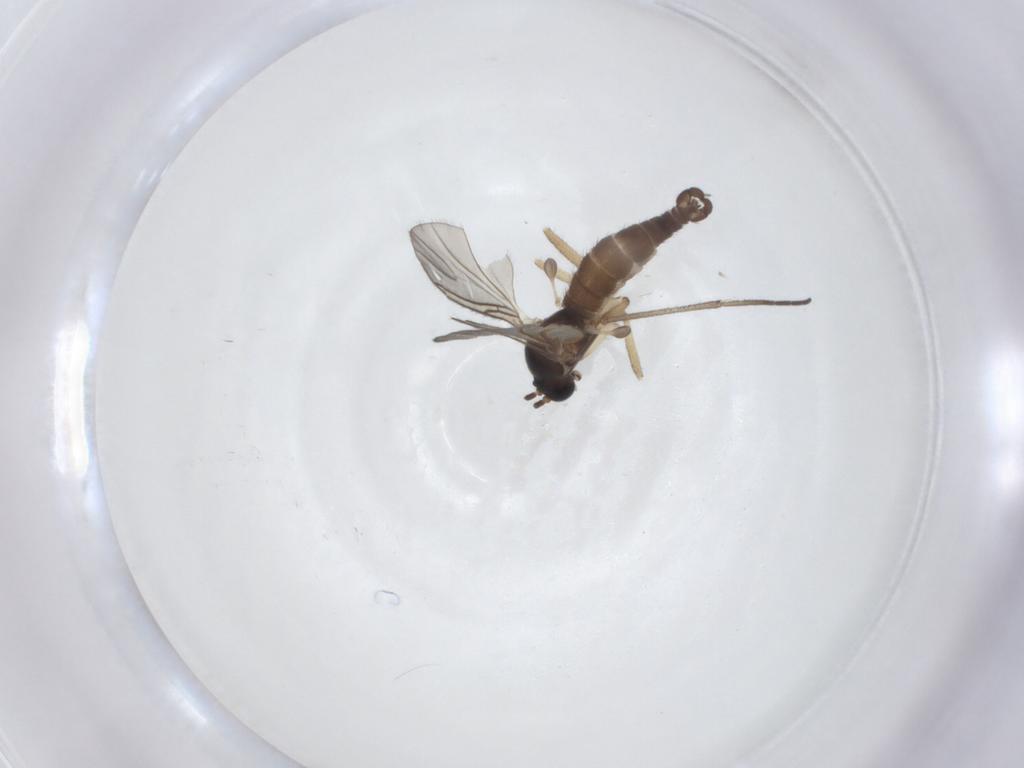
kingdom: Animalia
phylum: Arthropoda
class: Insecta
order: Diptera
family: Sciaridae
